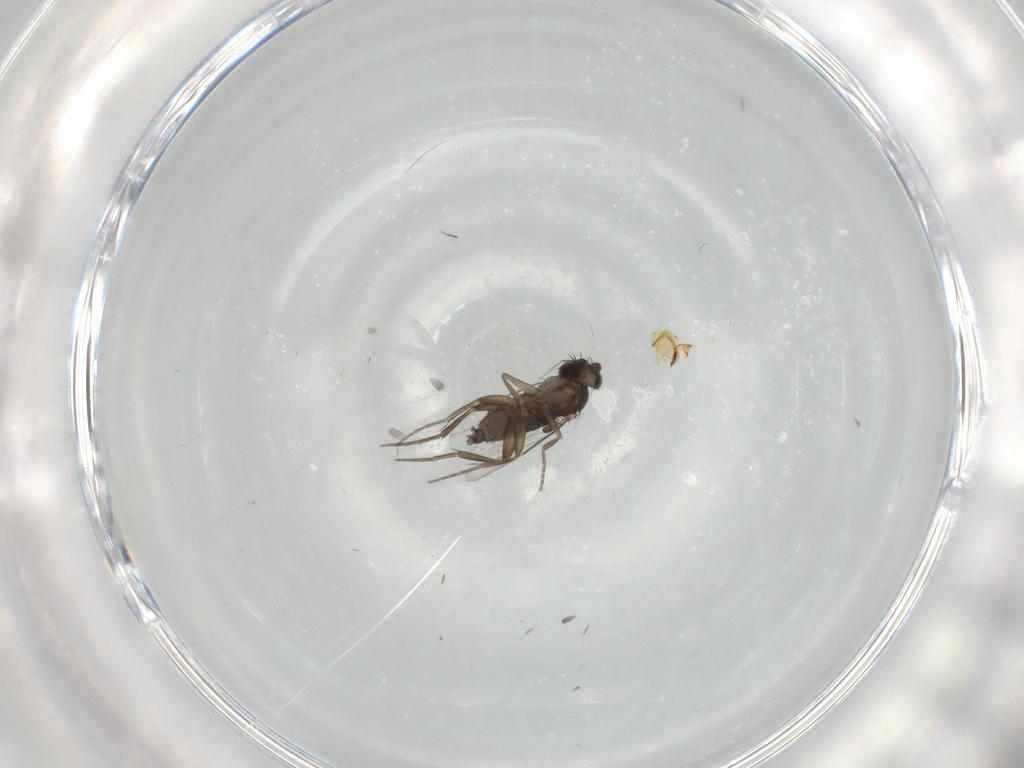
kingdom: Animalia
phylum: Arthropoda
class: Insecta
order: Diptera
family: Phoridae
